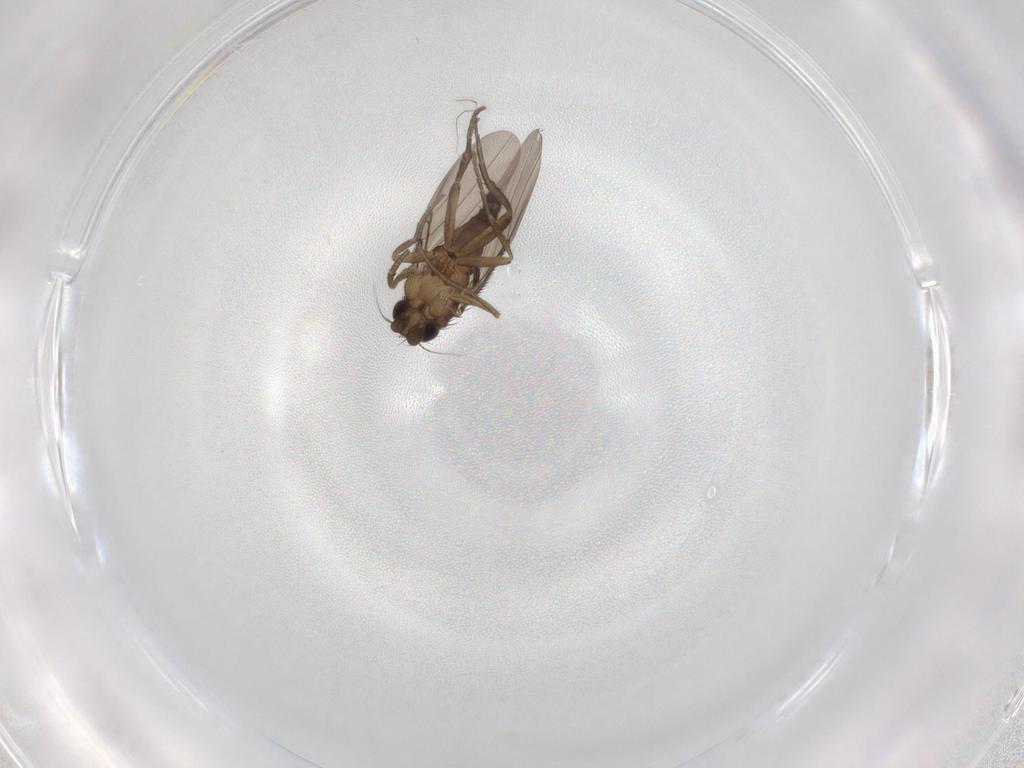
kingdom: Animalia
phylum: Arthropoda
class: Insecta
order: Diptera
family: Phoridae
